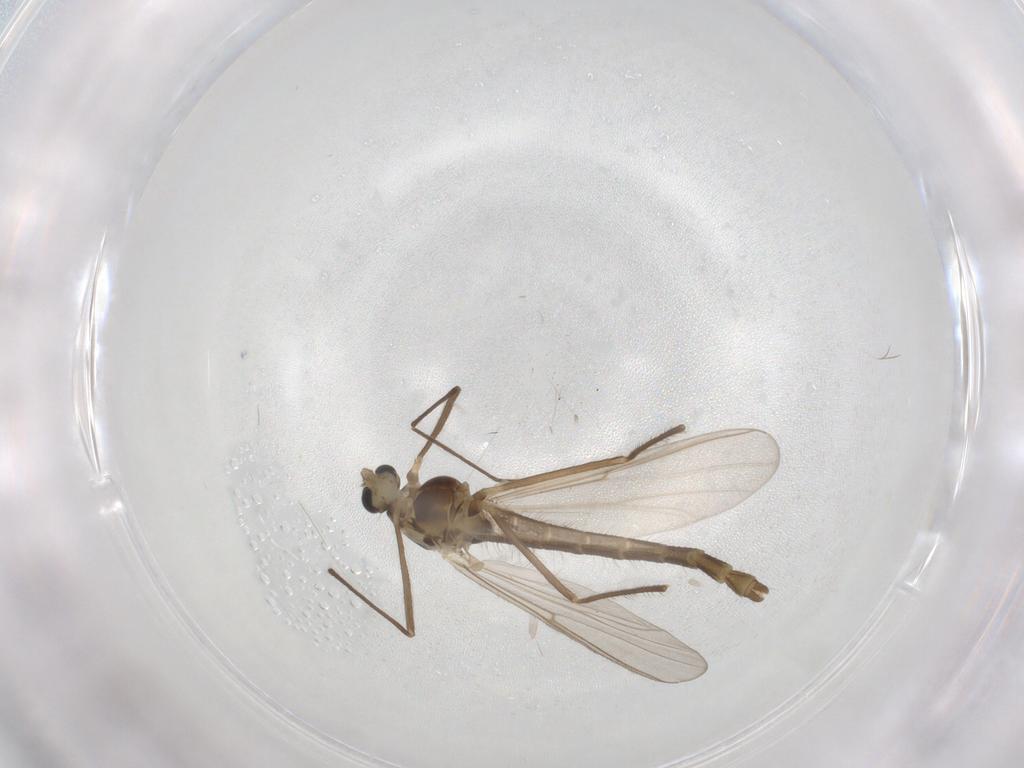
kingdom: Animalia
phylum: Arthropoda
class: Insecta
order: Diptera
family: Chironomidae
